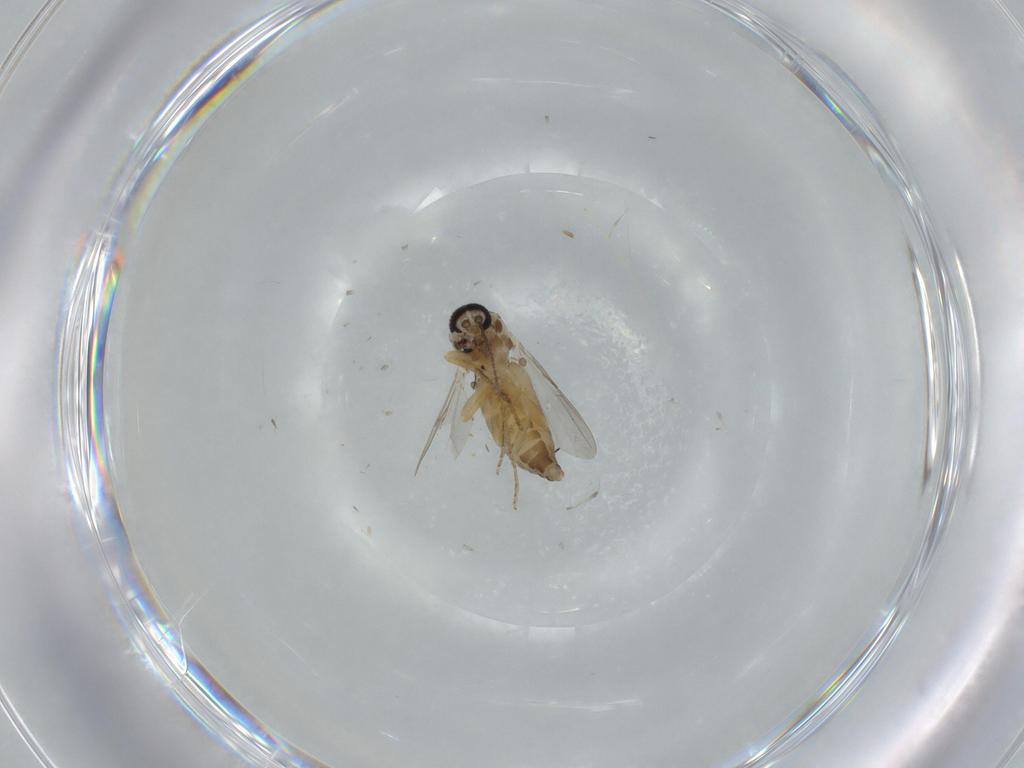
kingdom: Animalia
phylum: Arthropoda
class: Insecta
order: Diptera
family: Ceratopogonidae
